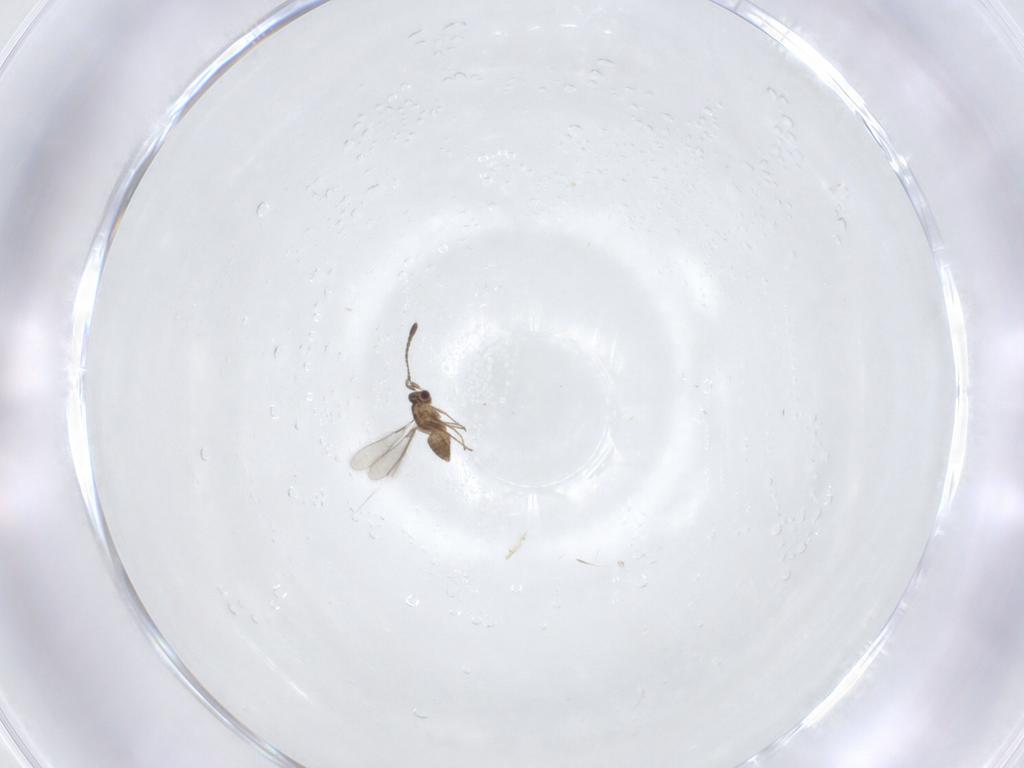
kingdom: Animalia
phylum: Arthropoda
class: Insecta
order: Hymenoptera
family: Mymaridae
